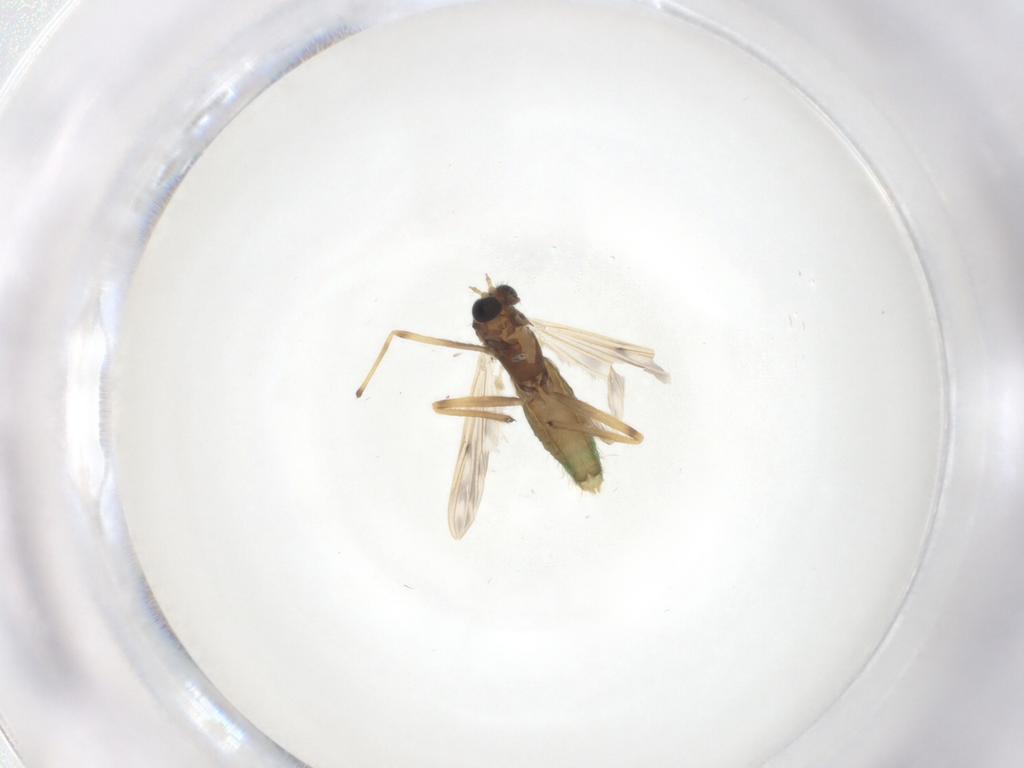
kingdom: Animalia
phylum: Arthropoda
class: Insecta
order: Diptera
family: Chironomidae
